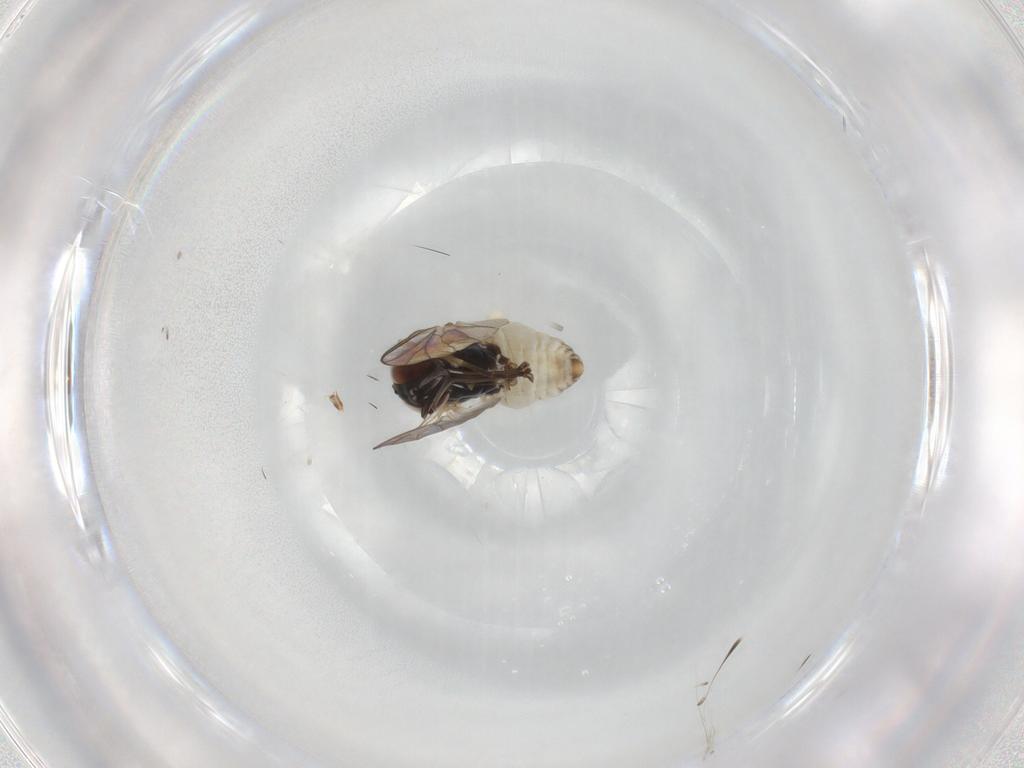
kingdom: Animalia
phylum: Arthropoda
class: Insecta
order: Diptera
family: Bombyliidae
